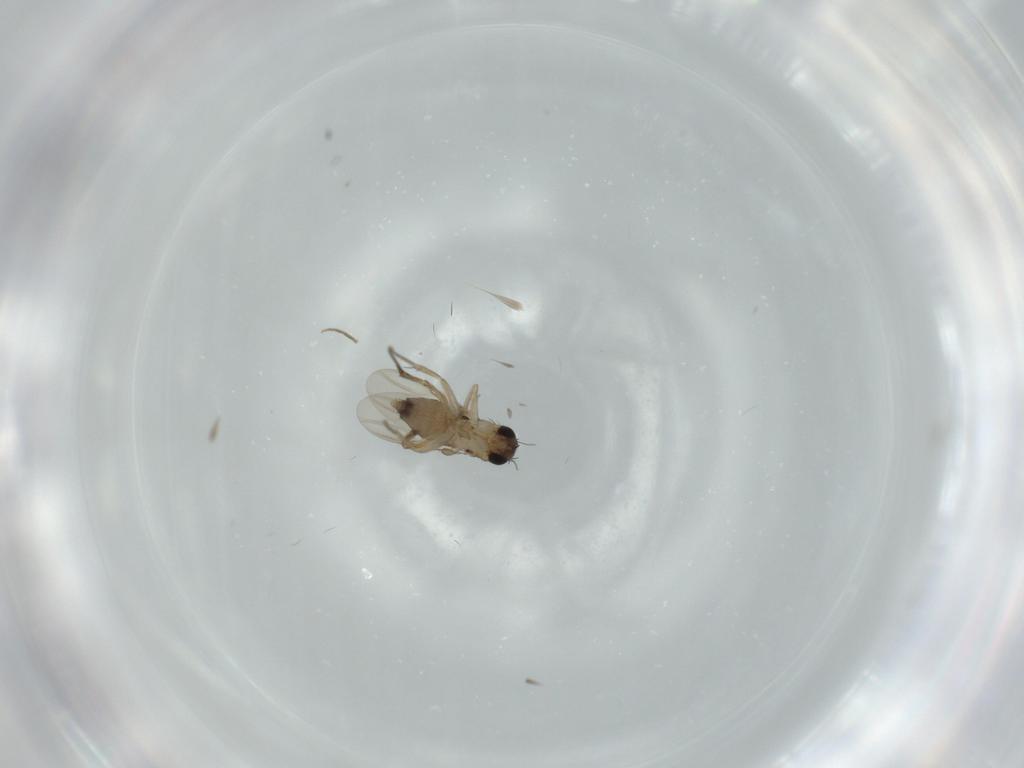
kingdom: Animalia
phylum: Arthropoda
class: Insecta
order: Diptera
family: Phoridae
